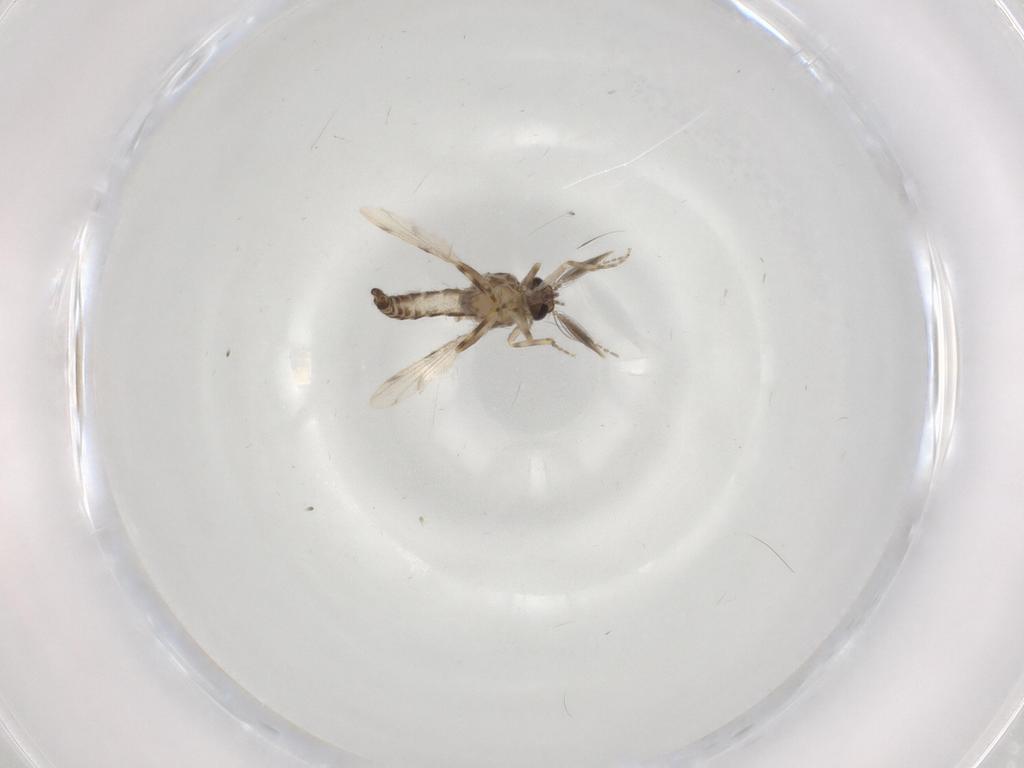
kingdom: Animalia
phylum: Arthropoda
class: Insecta
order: Diptera
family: Ceratopogonidae
